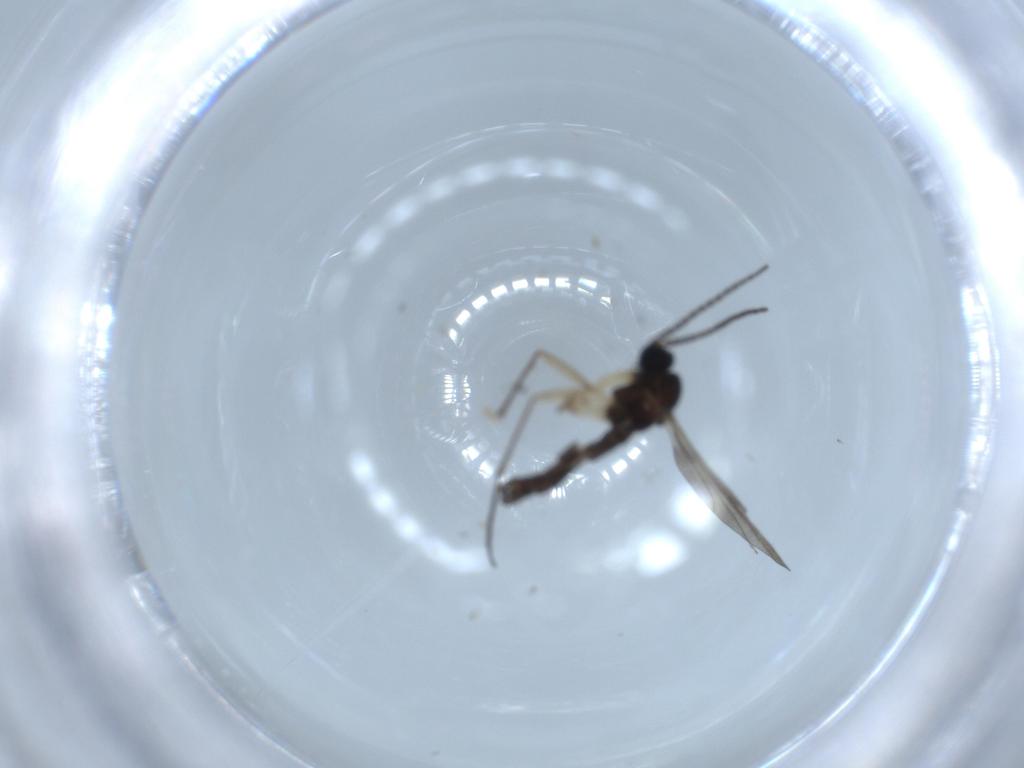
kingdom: Animalia
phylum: Arthropoda
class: Insecta
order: Diptera
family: Sciaridae
